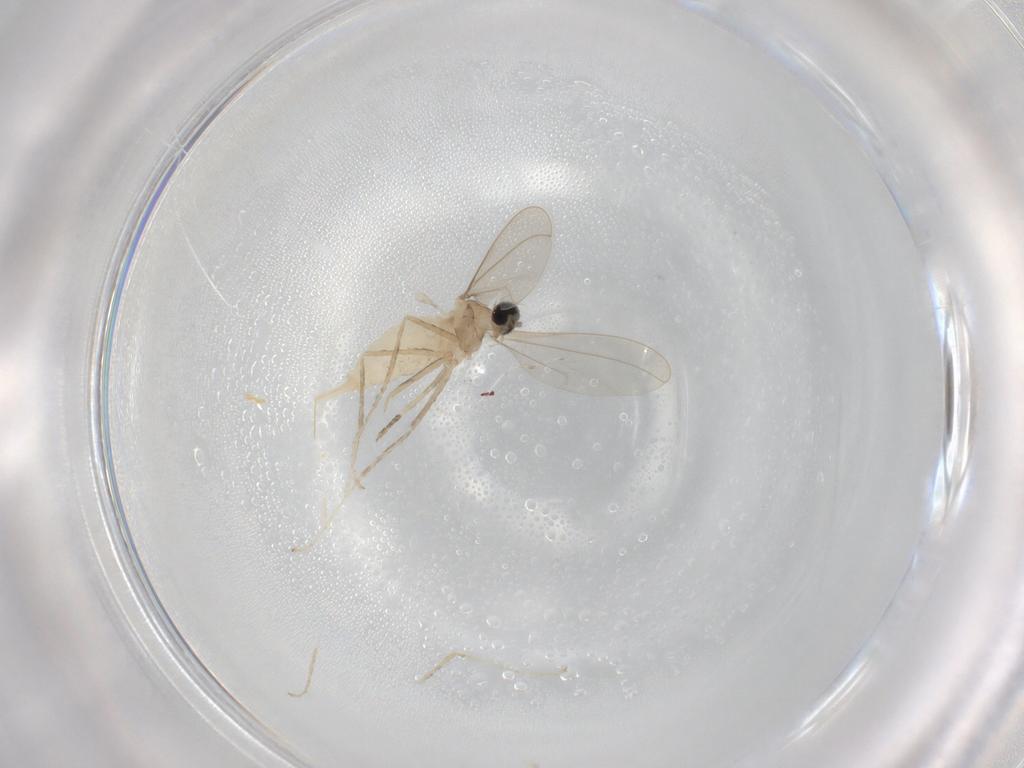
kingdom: Animalia
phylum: Arthropoda
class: Insecta
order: Diptera
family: Cecidomyiidae
